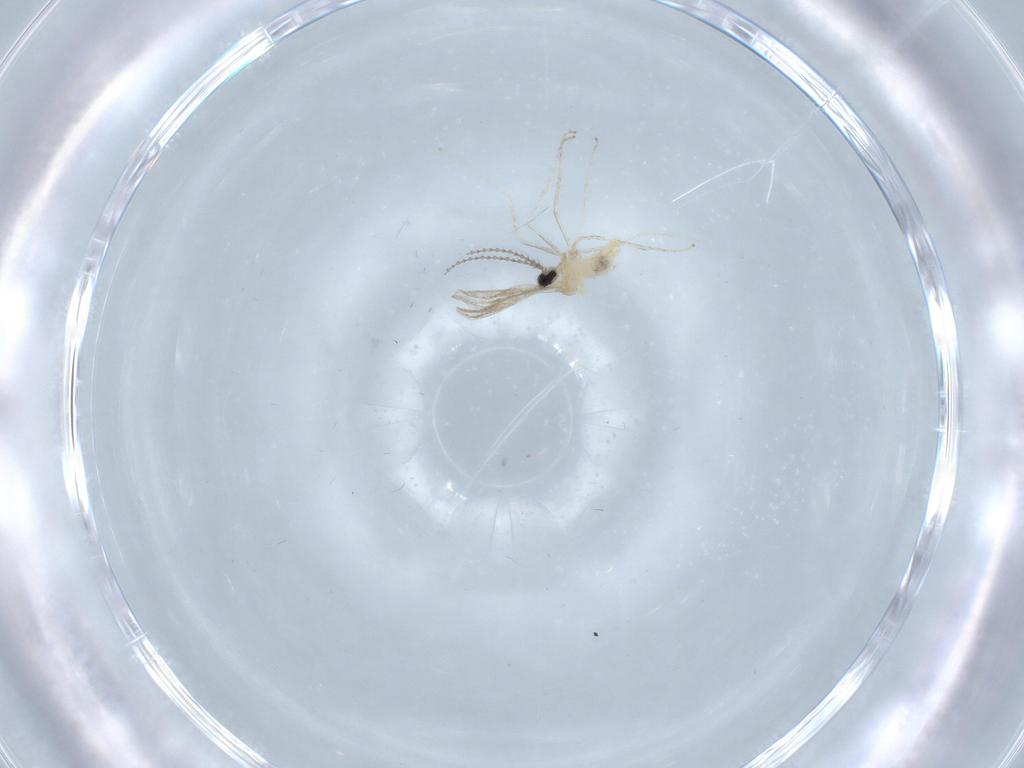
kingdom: Animalia
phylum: Arthropoda
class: Insecta
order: Diptera
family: Cecidomyiidae
